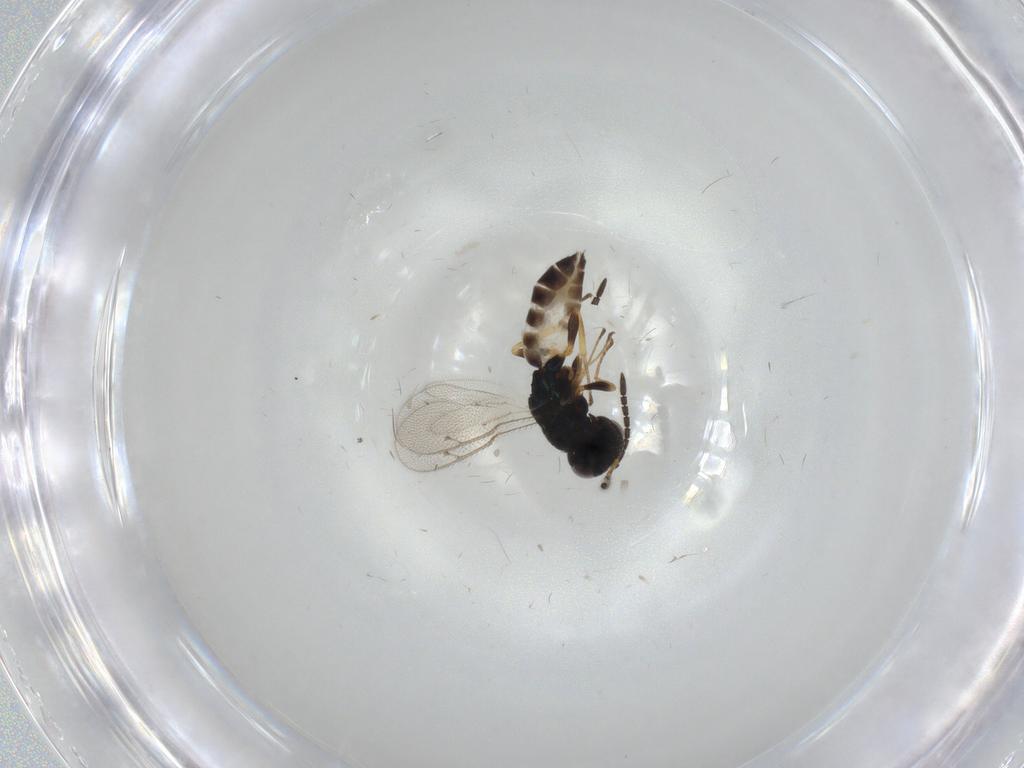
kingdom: Animalia
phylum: Arthropoda
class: Insecta
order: Hymenoptera
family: Pteromalidae
